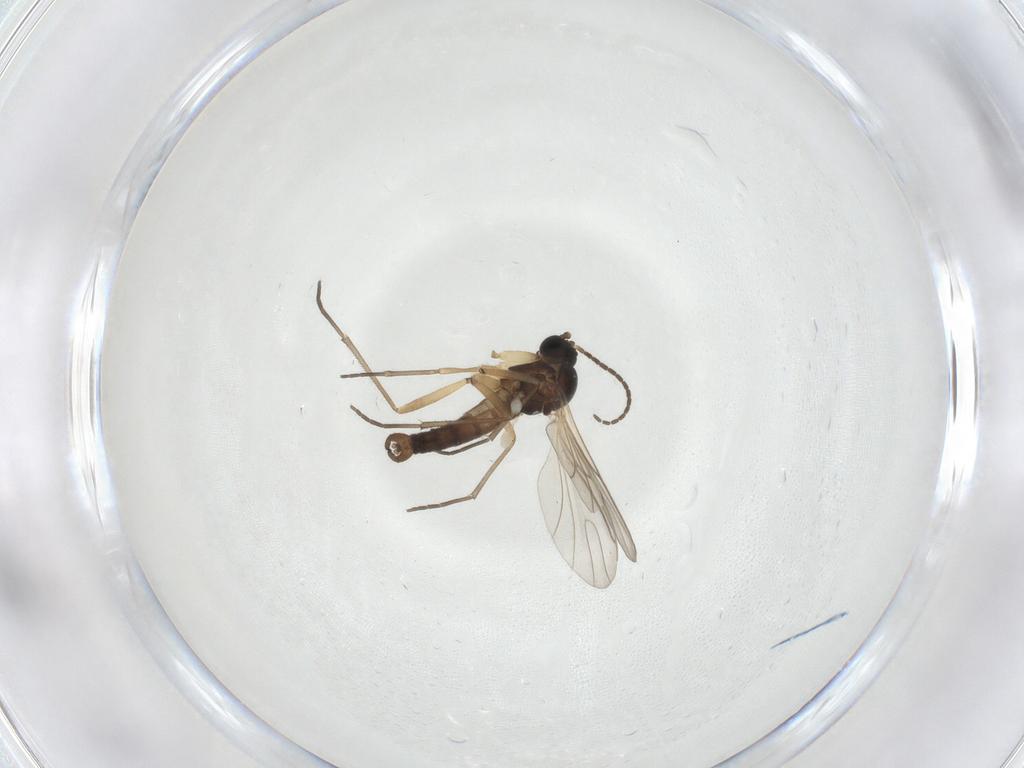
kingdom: Animalia
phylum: Arthropoda
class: Insecta
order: Diptera
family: Sciaridae
